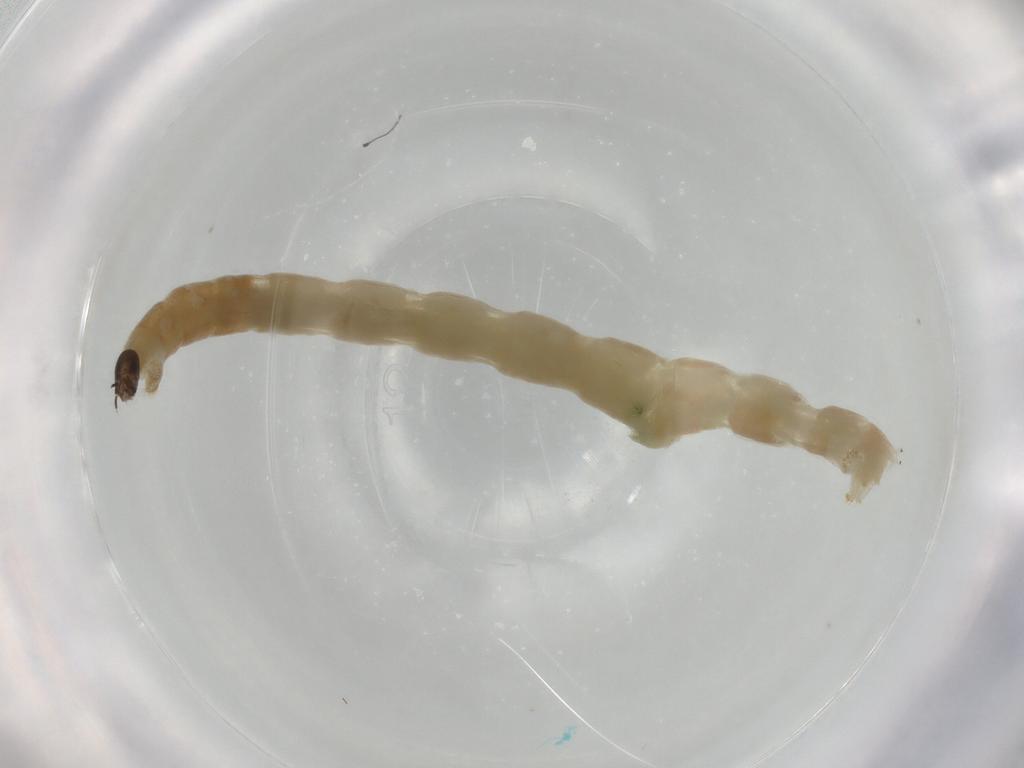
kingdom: Animalia
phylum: Arthropoda
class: Insecta
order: Diptera
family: Chironomidae
